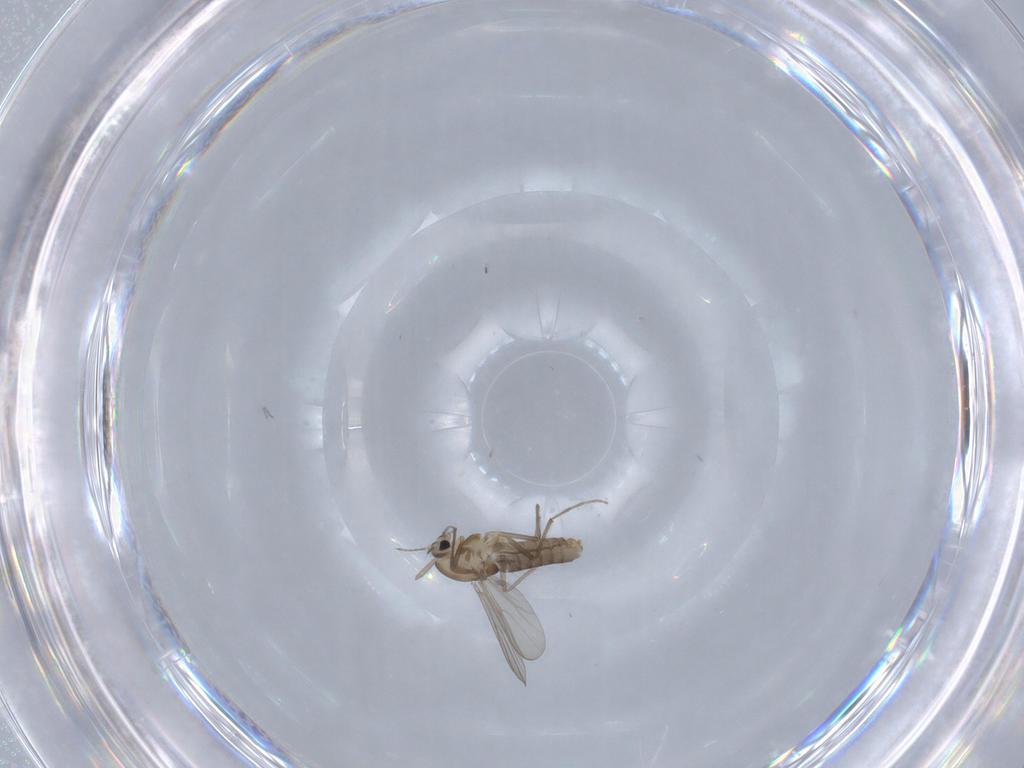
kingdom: Animalia
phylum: Arthropoda
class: Insecta
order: Diptera
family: Chironomidae
